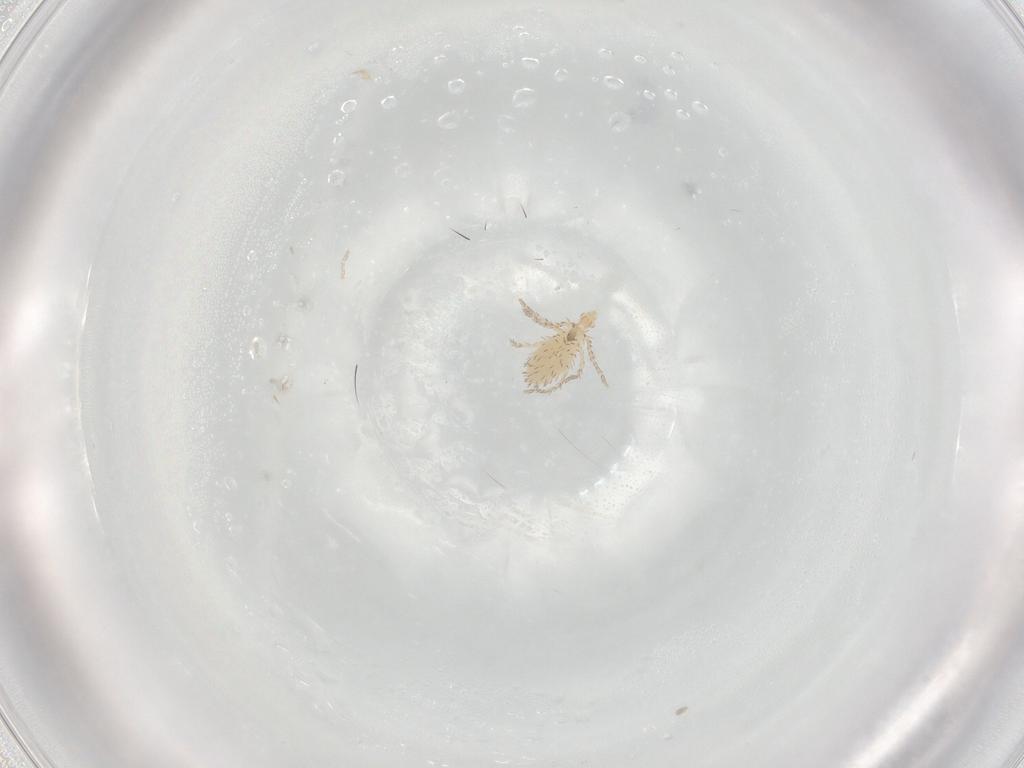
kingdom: Animalia
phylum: Arthropoda
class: Arachnida
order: Trombidiformes
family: Erythraeidae
